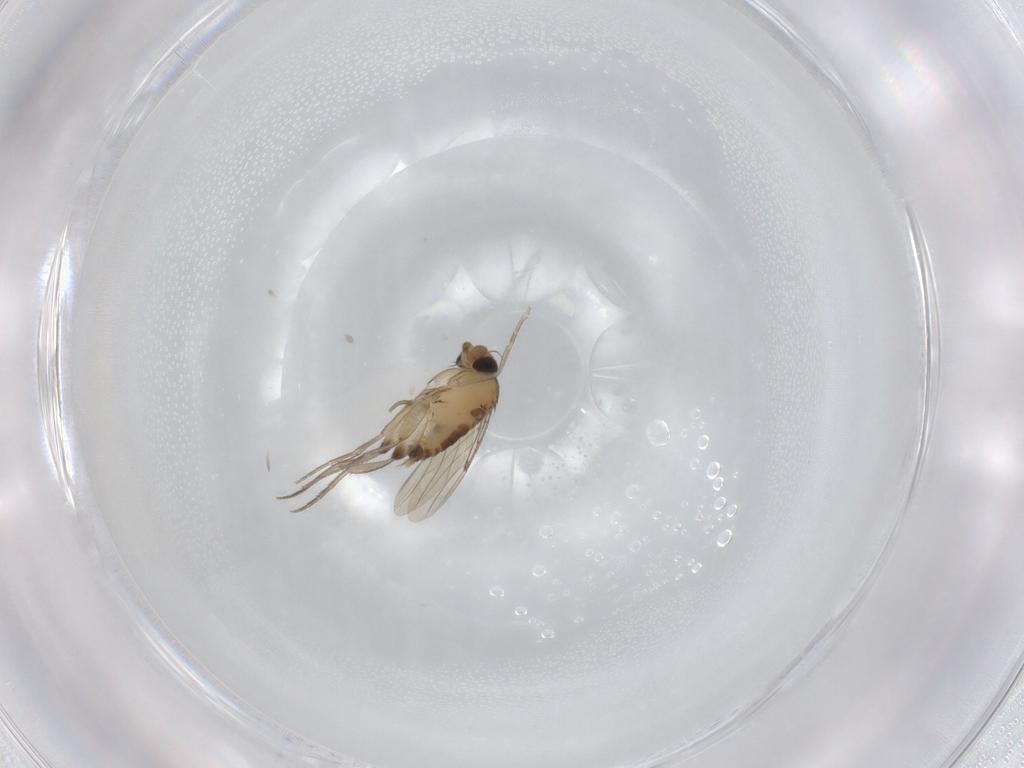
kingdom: Animalia
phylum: Arthropoda
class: Insecta
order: Diptera
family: Phoridae
